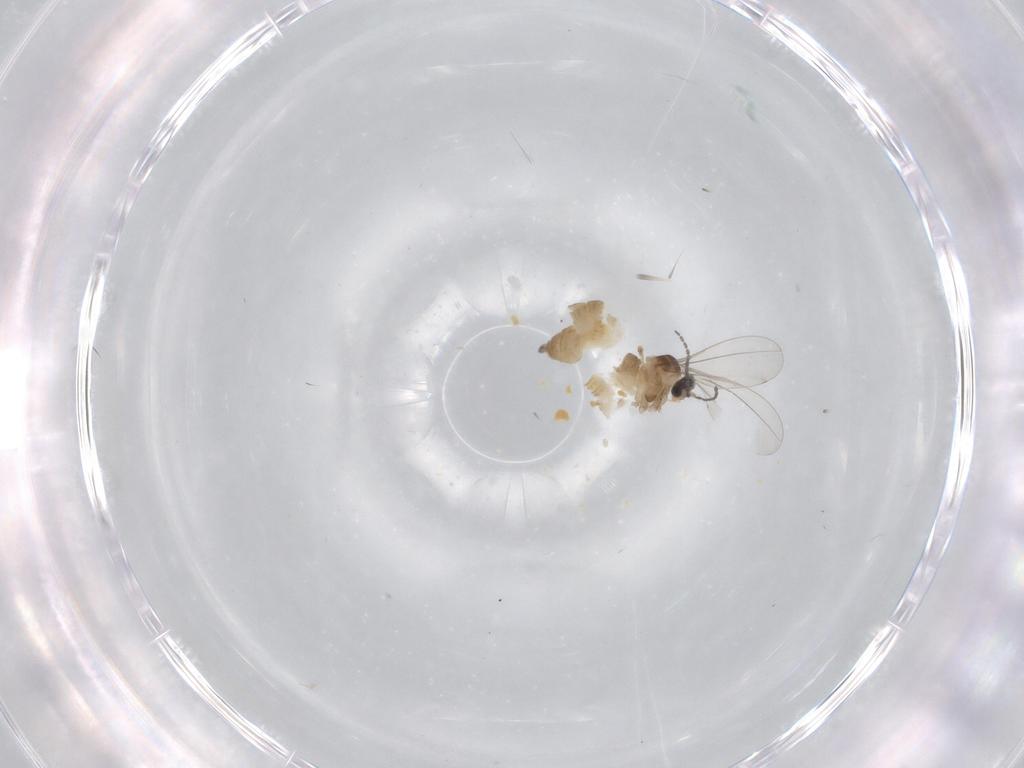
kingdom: Animalia
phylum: Arthropoda
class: Insecta
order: Diptera
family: Cecidomyiidae
